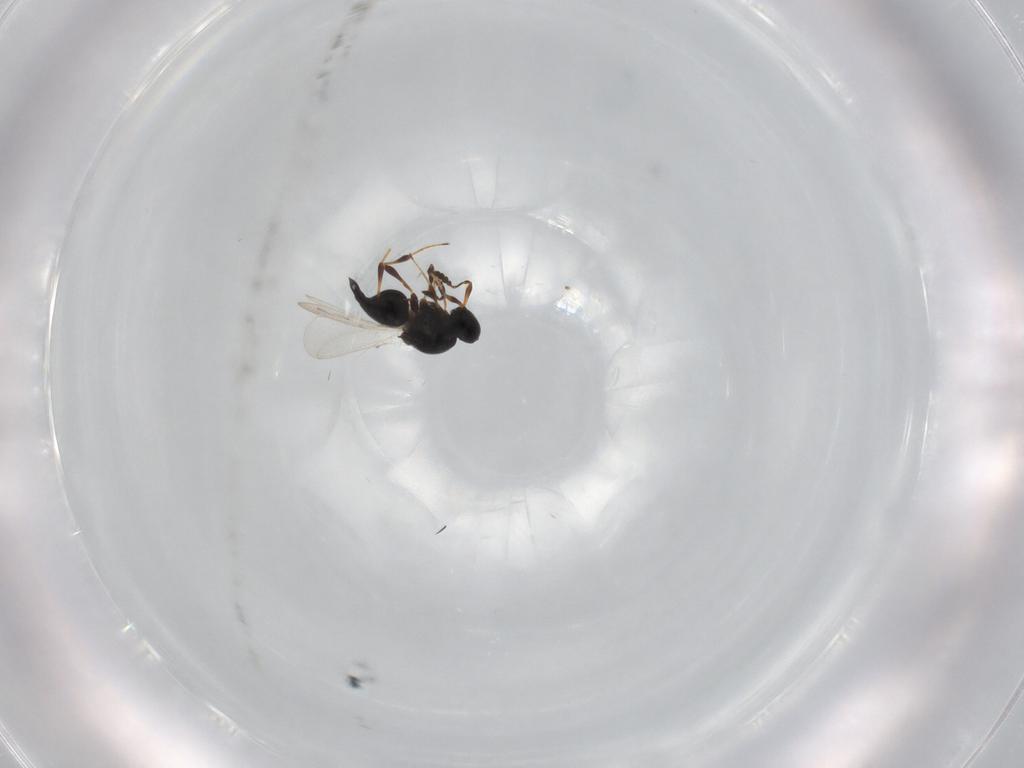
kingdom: Animalia
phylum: Arthropoda
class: Insecta
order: Hymenoptera
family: Platygastridae
